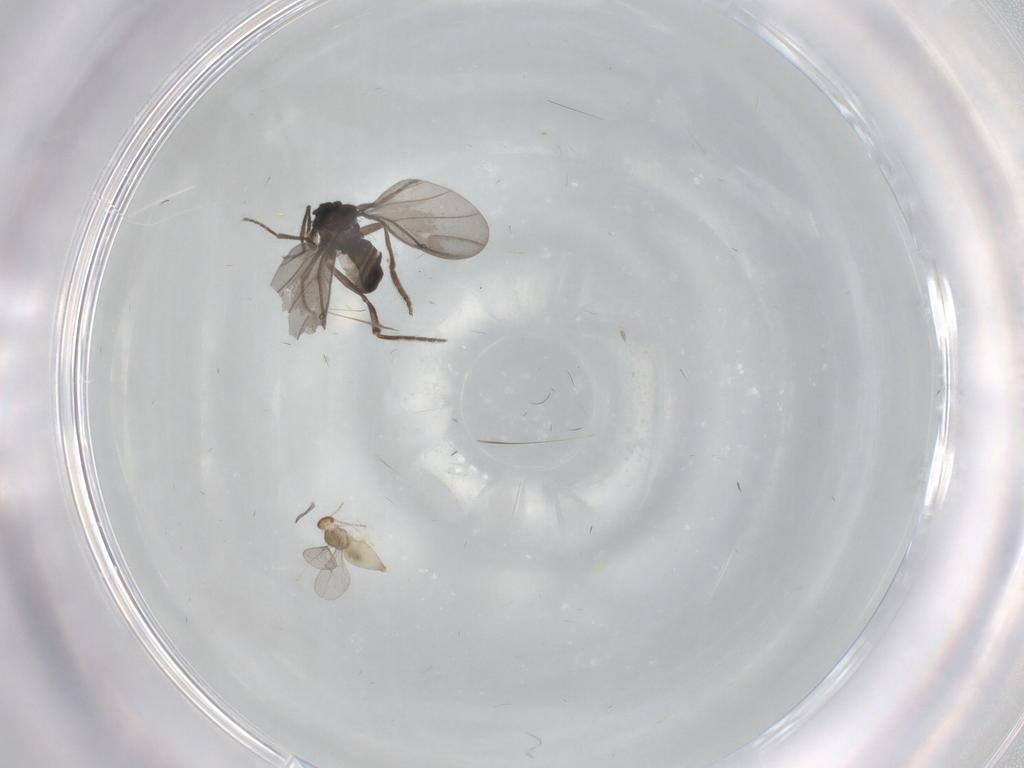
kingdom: Animalia
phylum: Arthropoda
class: Insecta
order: Diptera
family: Cecidomyiidae
